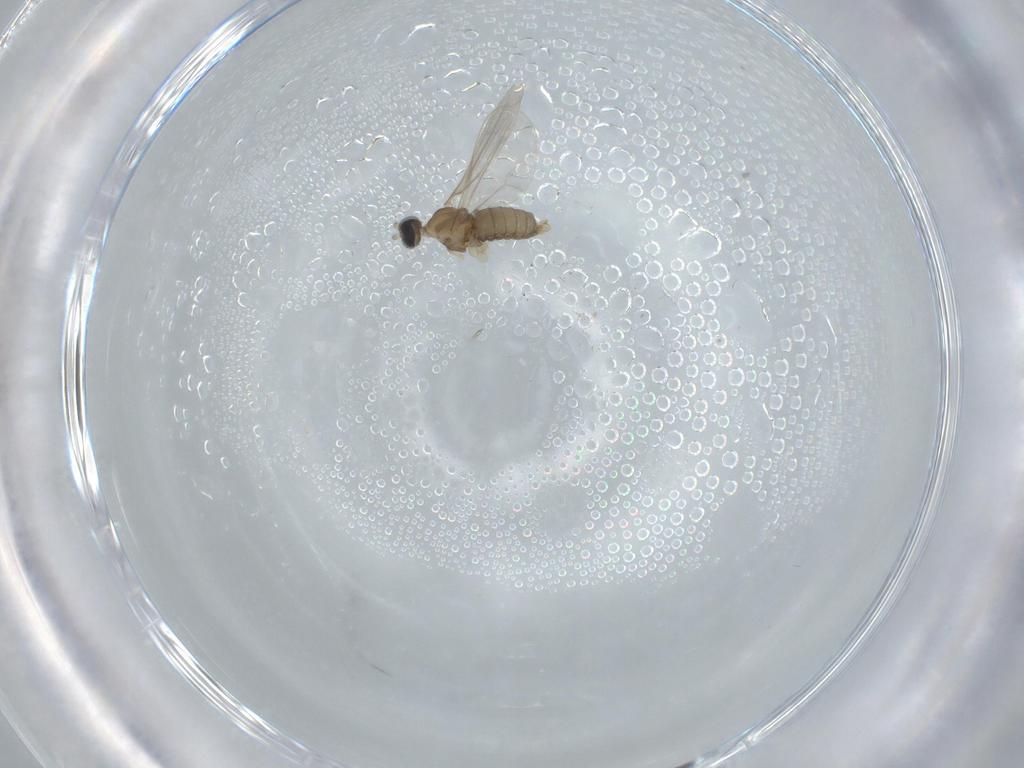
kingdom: Animalia
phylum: Arthropoda
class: Insecta
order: Diptera
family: Cecidomyiidae
